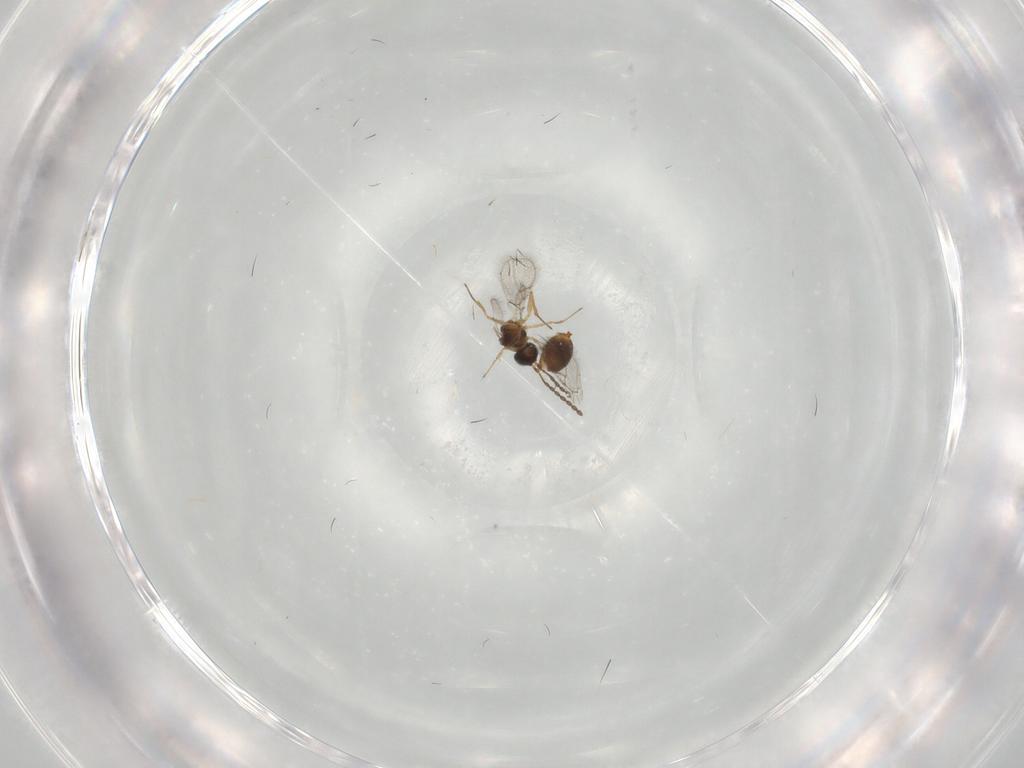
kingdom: Animalia
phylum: Arthropoda
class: Insecta
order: Hymenoptera
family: Figitidae
